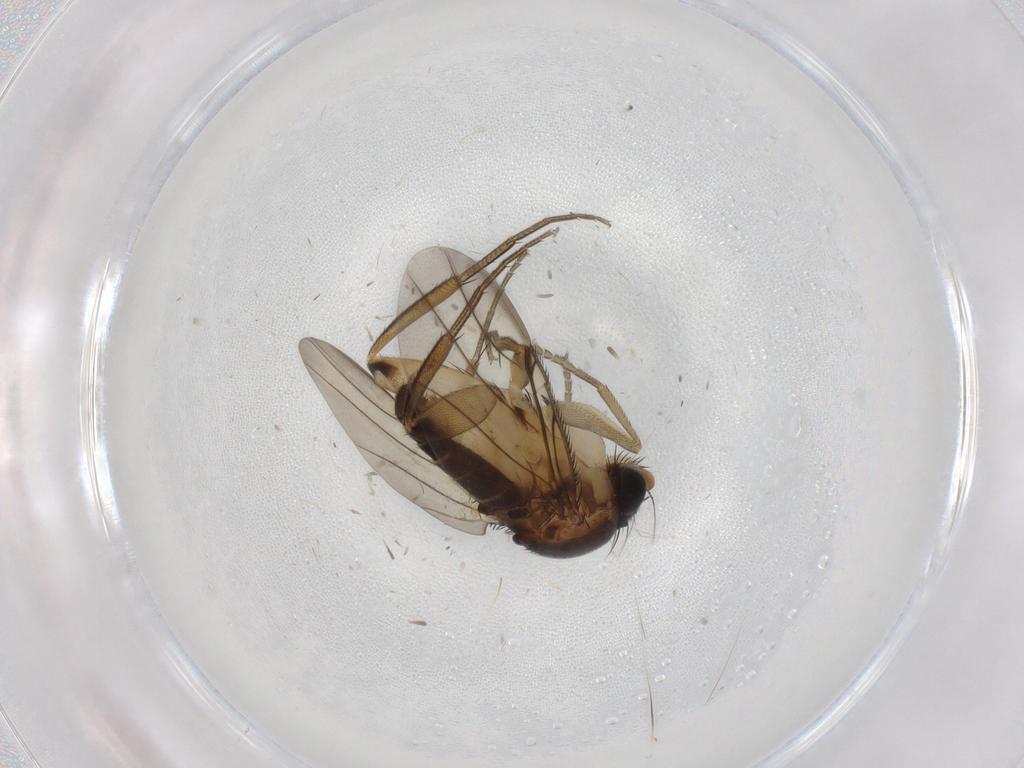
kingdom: Animalia
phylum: Arthropoda
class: Insecta
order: Diptera
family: Phoridae
